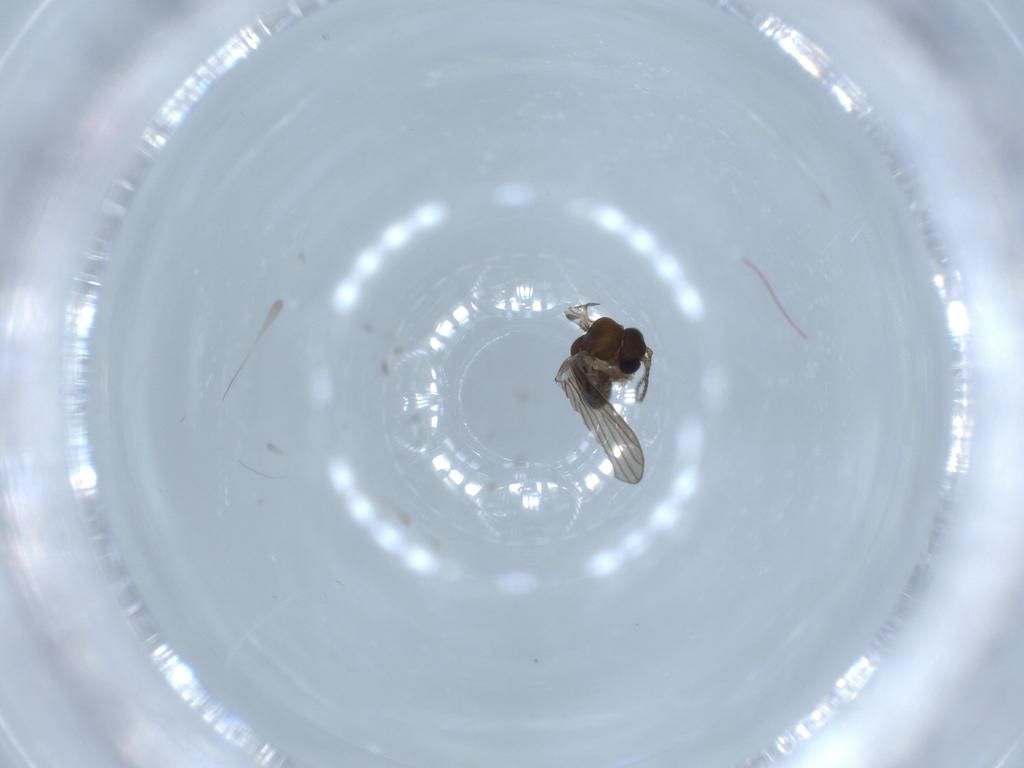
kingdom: Animalia
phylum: Arthropoda
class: Insecta
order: Diptera
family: Psychodidae
